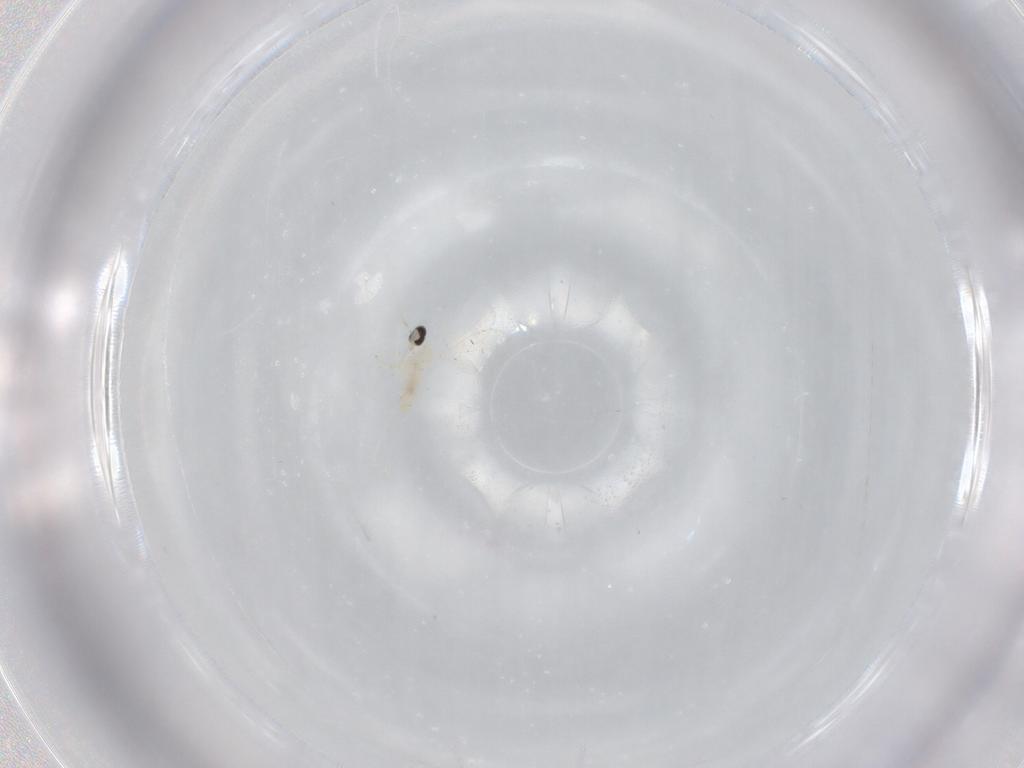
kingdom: Animalia
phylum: Arthropoda
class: Insecta
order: Diptera
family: Cecidomyiidae
